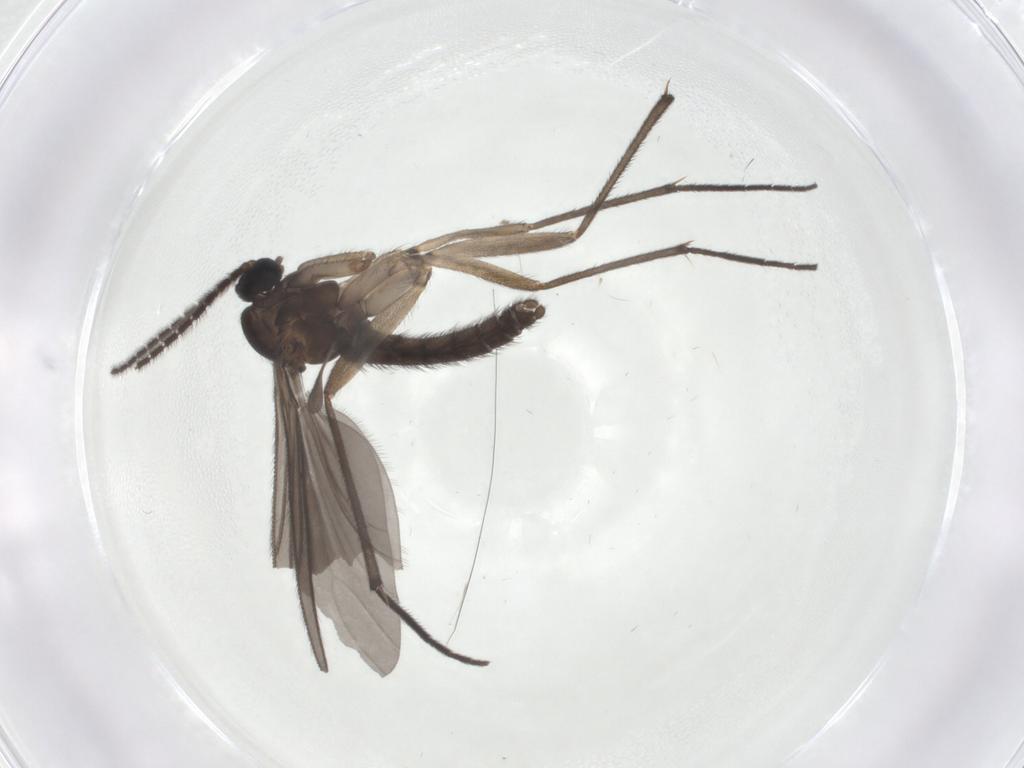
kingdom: Animalia
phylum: Arthropoda
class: Insecta
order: Diptera
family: Sciaridae
